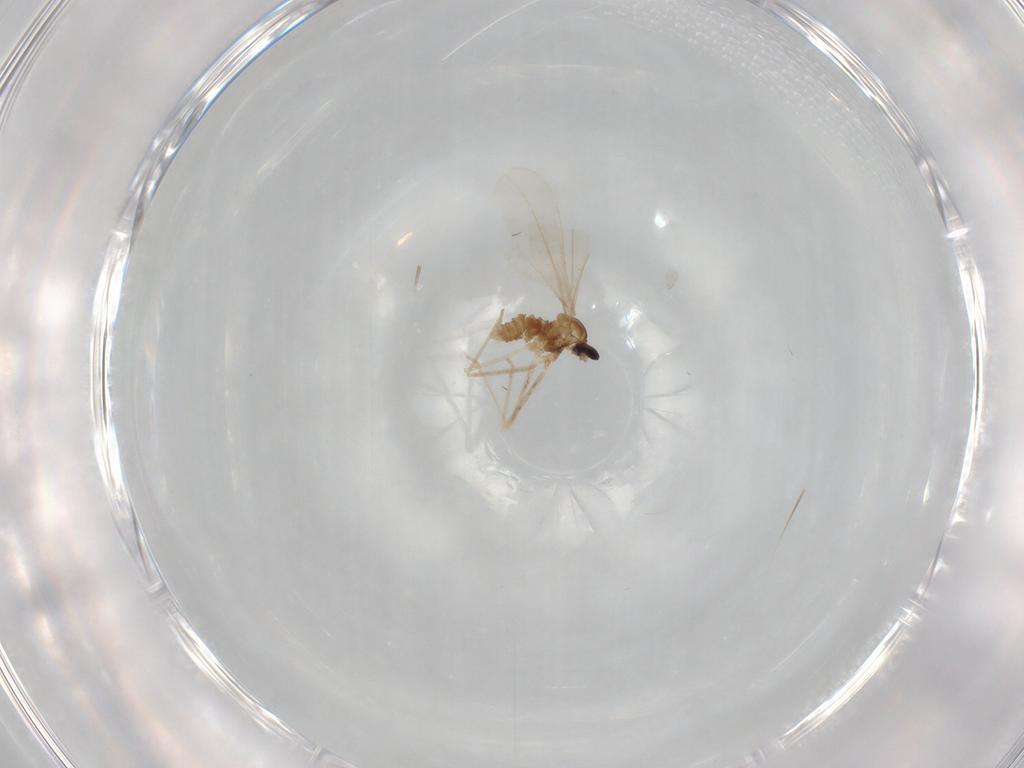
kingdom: Animalia
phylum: Arthropoda
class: Insecta
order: Diptera
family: Cecidomyiidae
